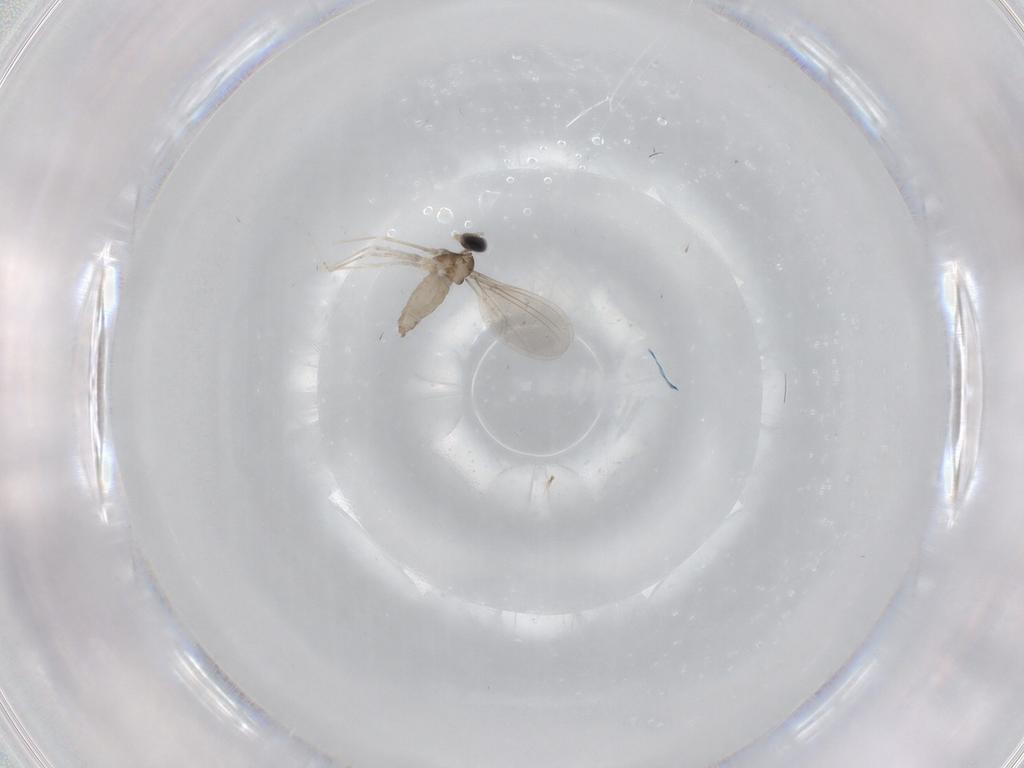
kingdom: Animalia
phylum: Arthropoda
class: Insecta
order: Diptera
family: Cecidomyiidae
